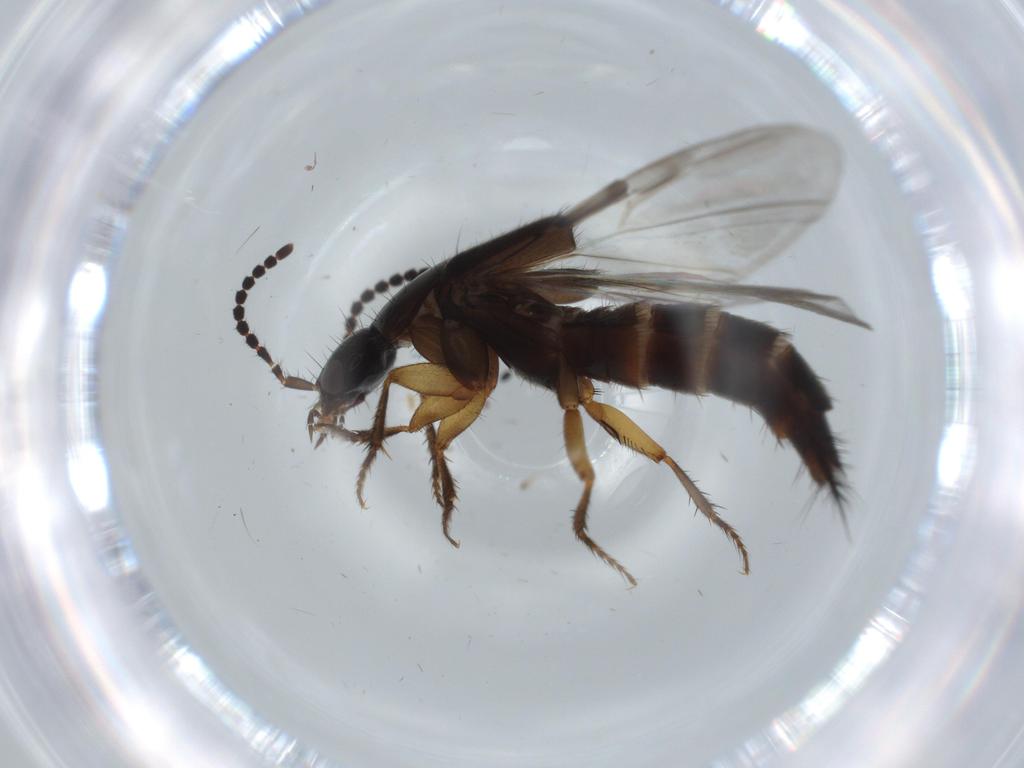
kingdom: Animalia
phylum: Arthropoda
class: Insecta
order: Coleoptera
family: Staphylinidae
